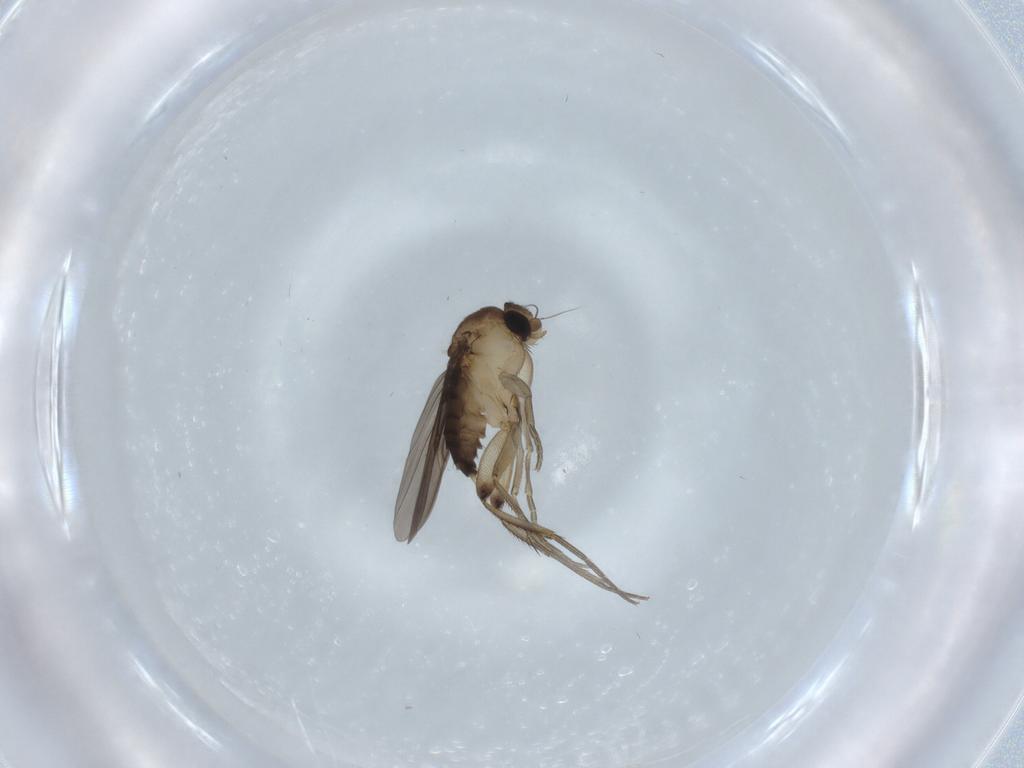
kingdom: Animalia
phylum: Arthropoda
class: Insecta
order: Diptera
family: Phoridae
